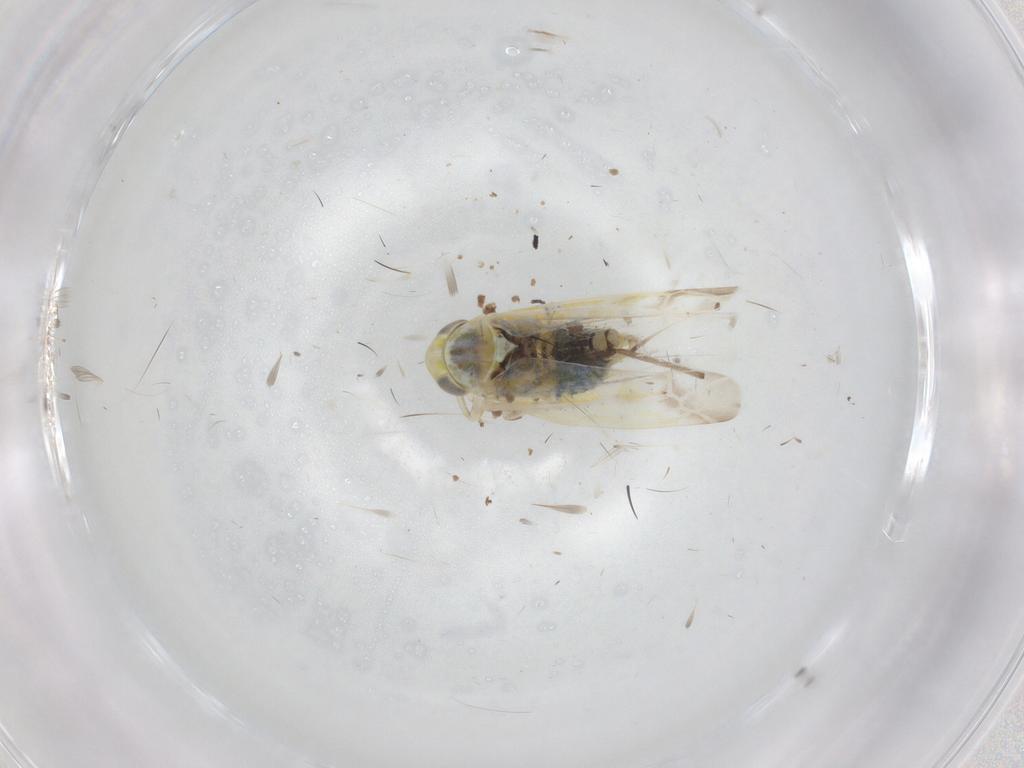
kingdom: Animalia
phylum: Arthropoda
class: Insecta
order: Hemiptera
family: Cicadellidae
